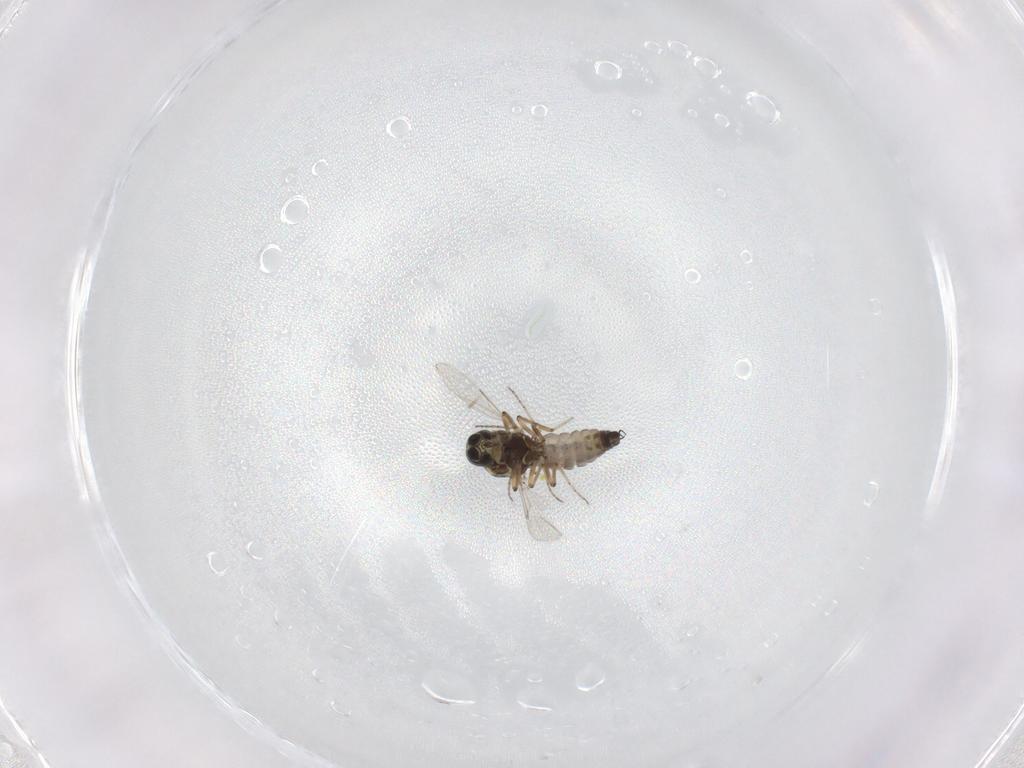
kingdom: Animalia
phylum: Arthropoda
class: Insecta
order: Diptera
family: Ceratopogonidae
